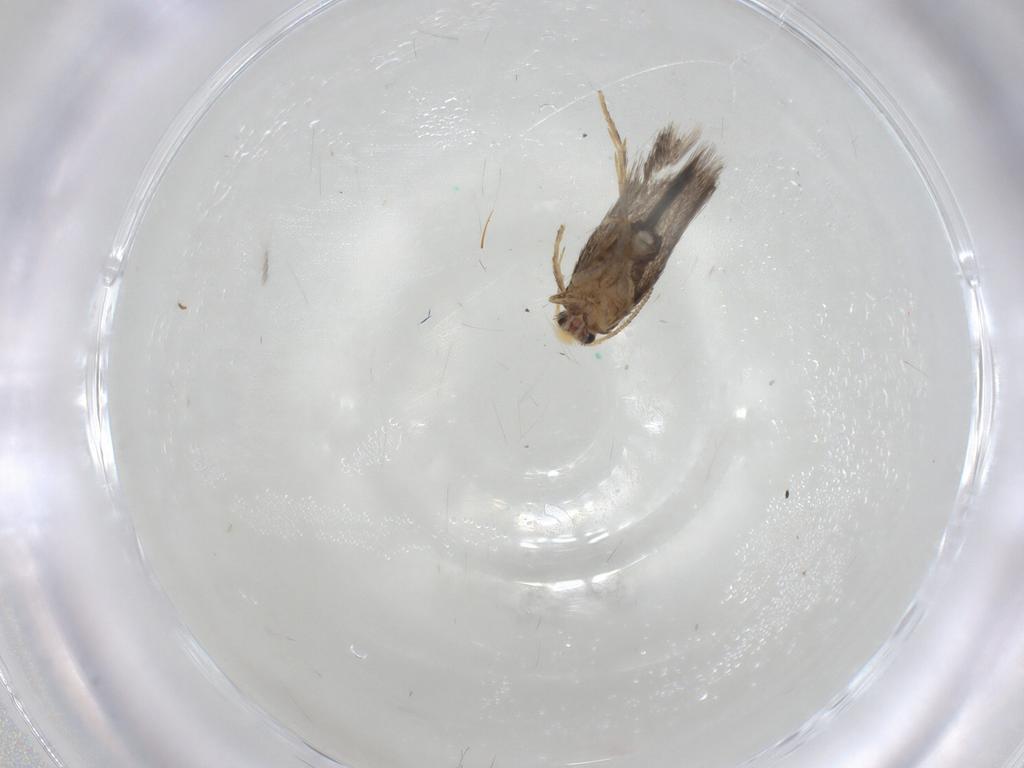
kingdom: Animalia
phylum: Arthropoda
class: Insecta
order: Lepidoptera
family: Nepticulidae
